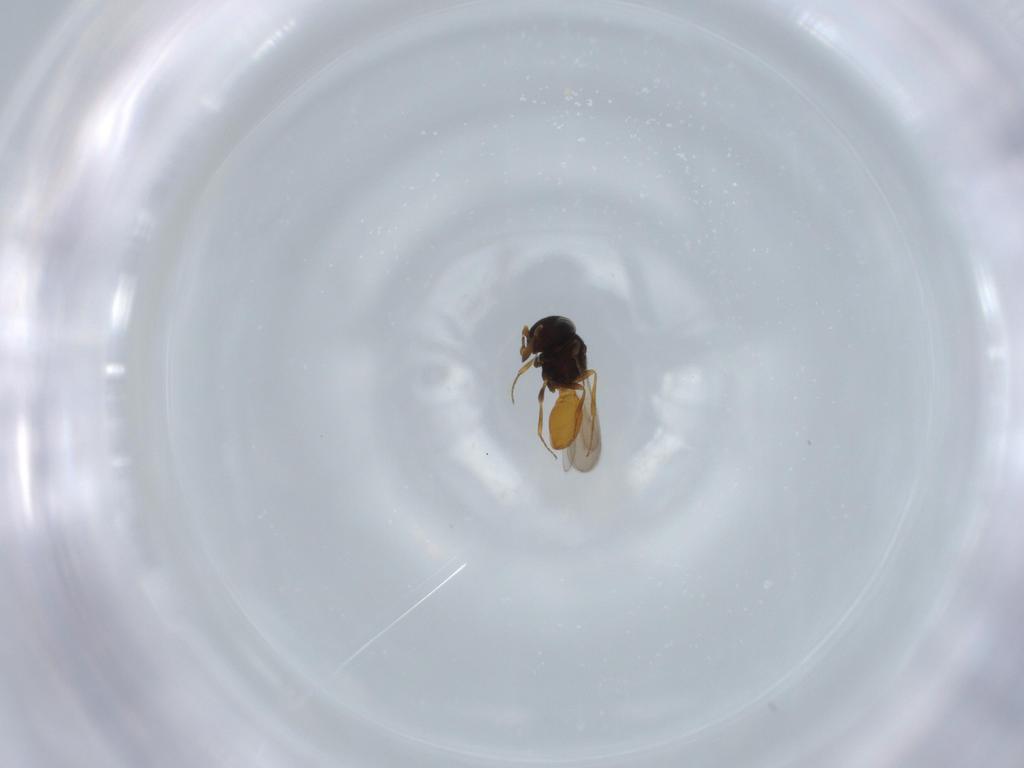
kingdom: Animalia
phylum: Arthropoda
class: Insecta
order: Hymenoptera
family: Scelionidae
